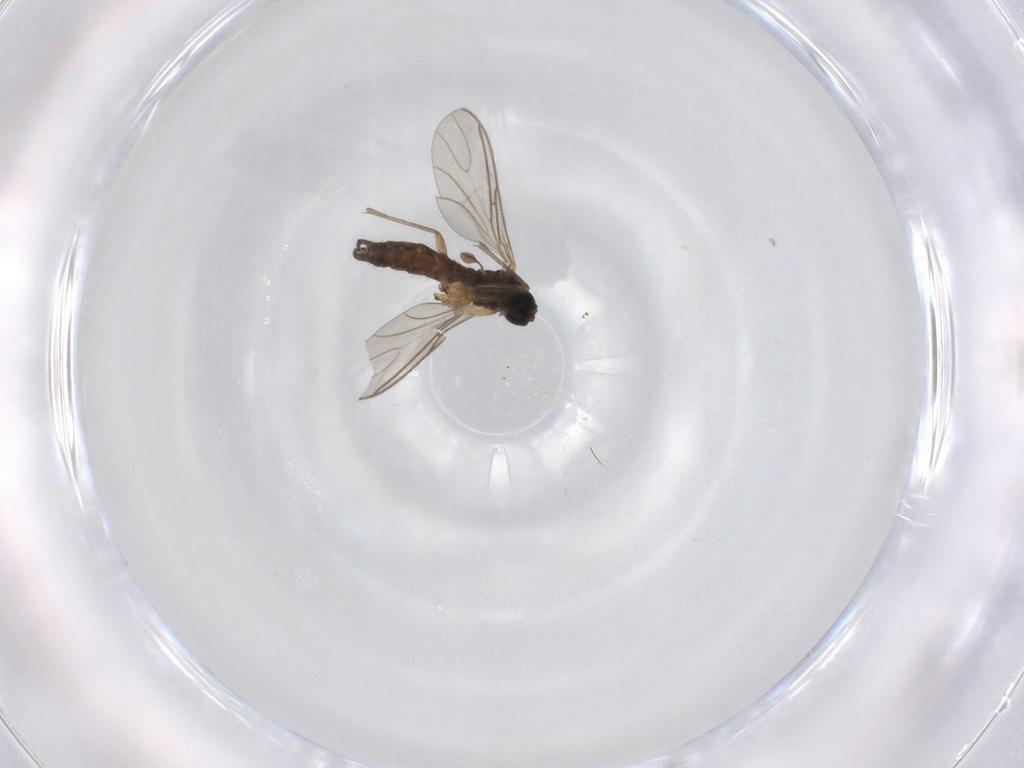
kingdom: Animalia
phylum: Arthropoda
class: Insecta
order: Diptera
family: Sciaridae
